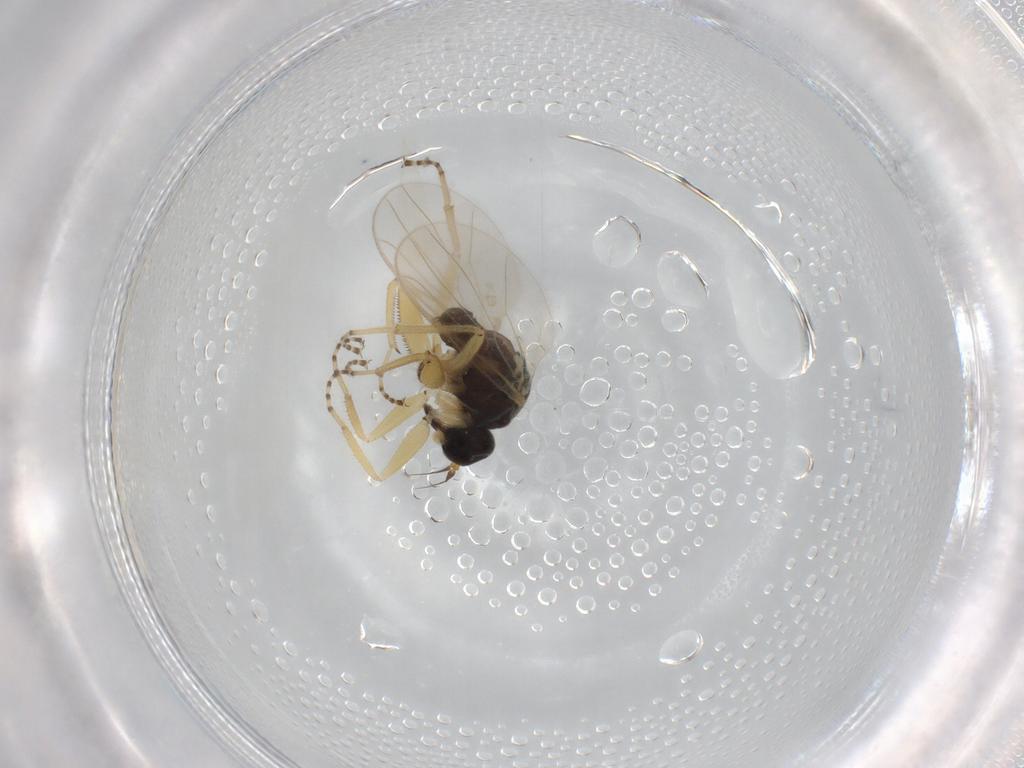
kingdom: Animalia
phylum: Arthropoda
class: Insecta
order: Diptera
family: Hybotidae
